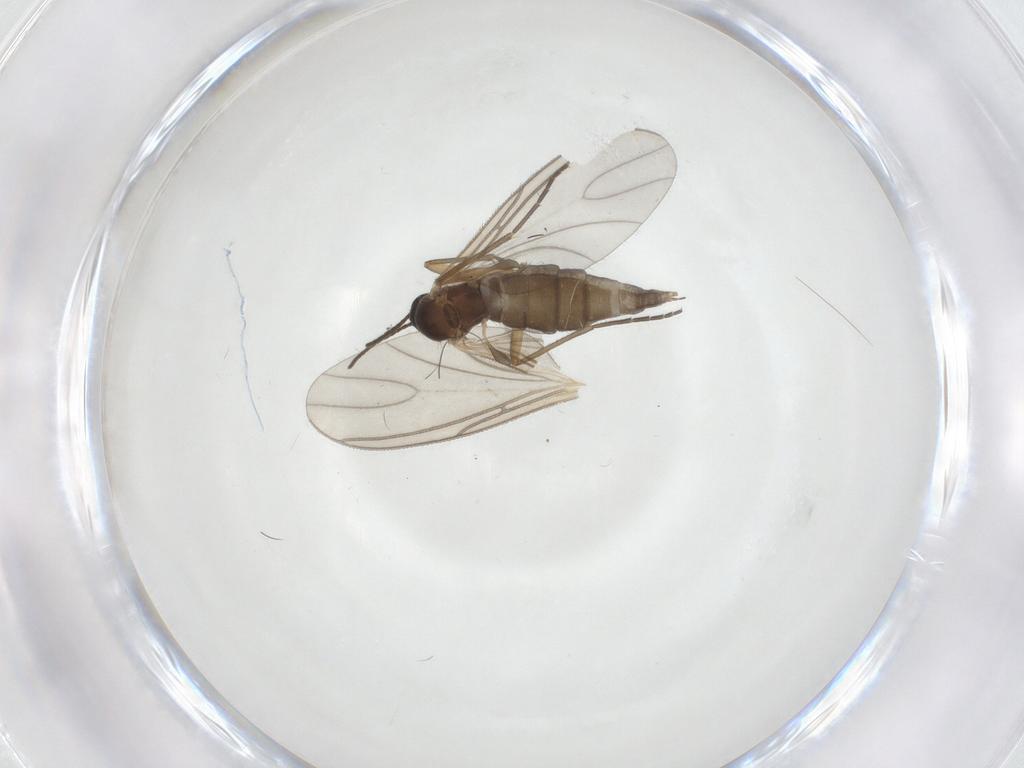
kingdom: Animalia
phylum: Arthropoda
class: Insecta
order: Diptera
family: Sciaridae
